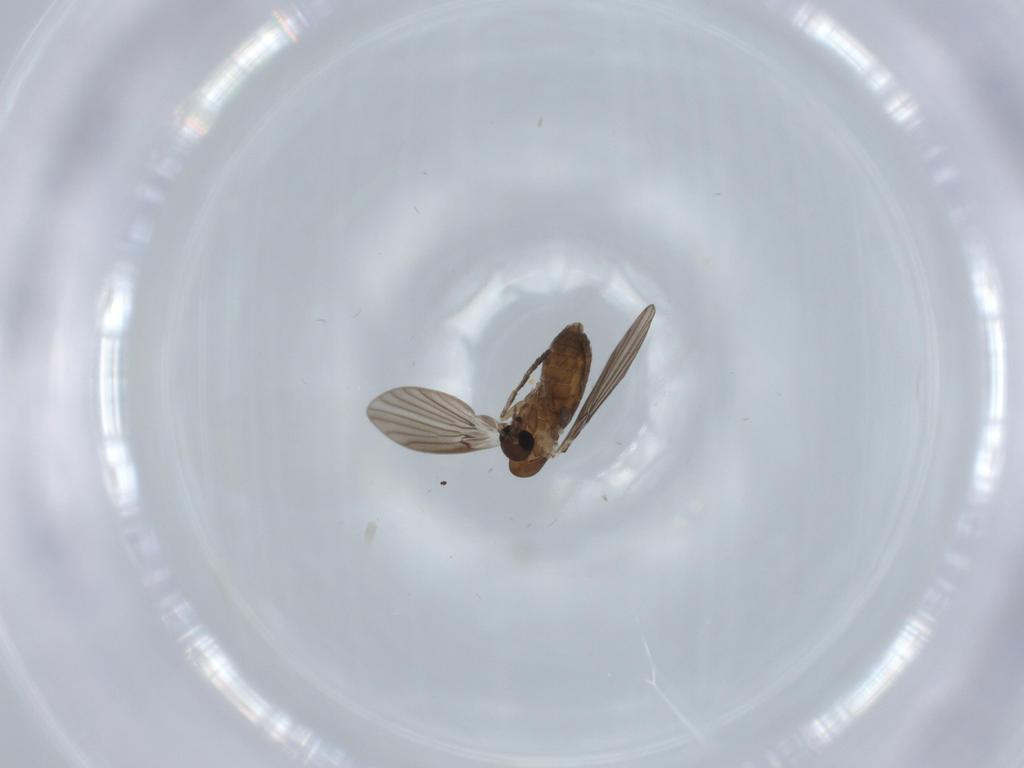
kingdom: Animalia
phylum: Arthropoda
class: Insecta
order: Diptera
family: Psychodidae
